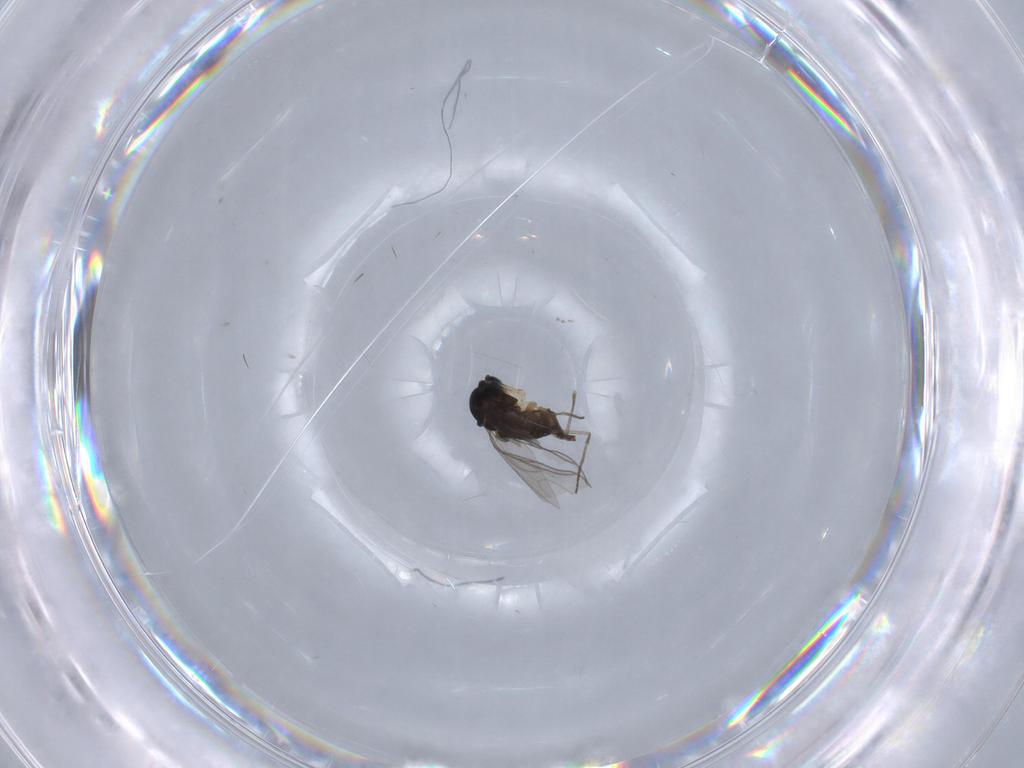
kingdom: Animalia
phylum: Arthropoda
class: Insecta
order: Diptera
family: Sciaridae
